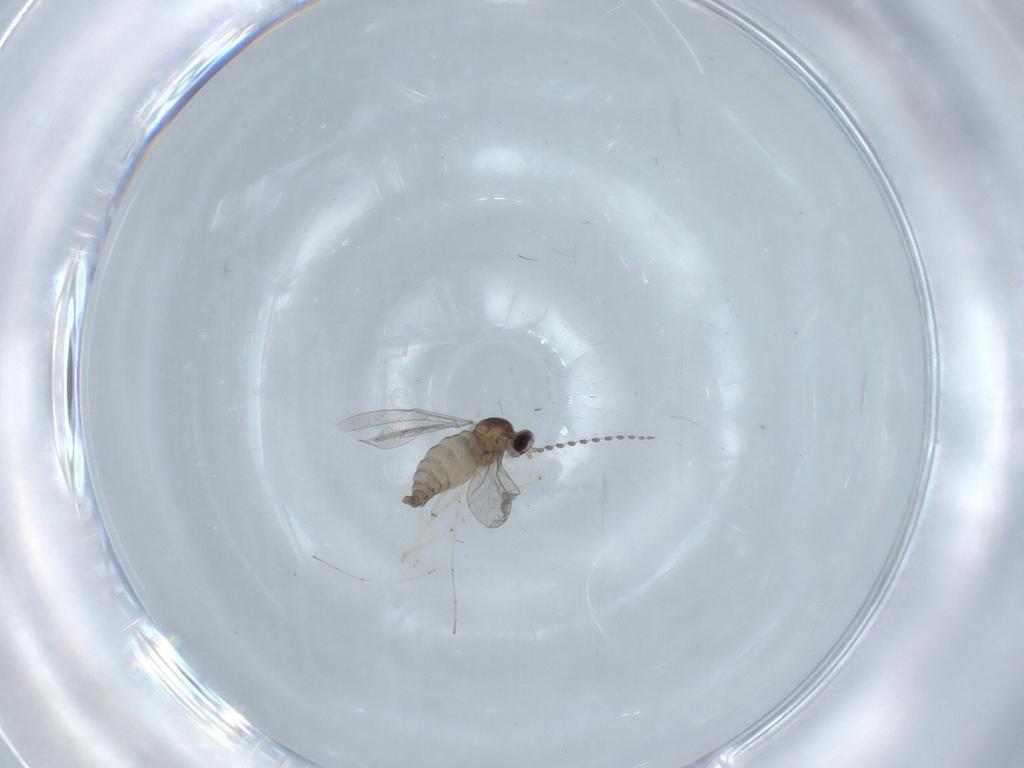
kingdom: Animalia
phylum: Arthropoda
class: Insecta
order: Diptera
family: Cecidomyiidae
